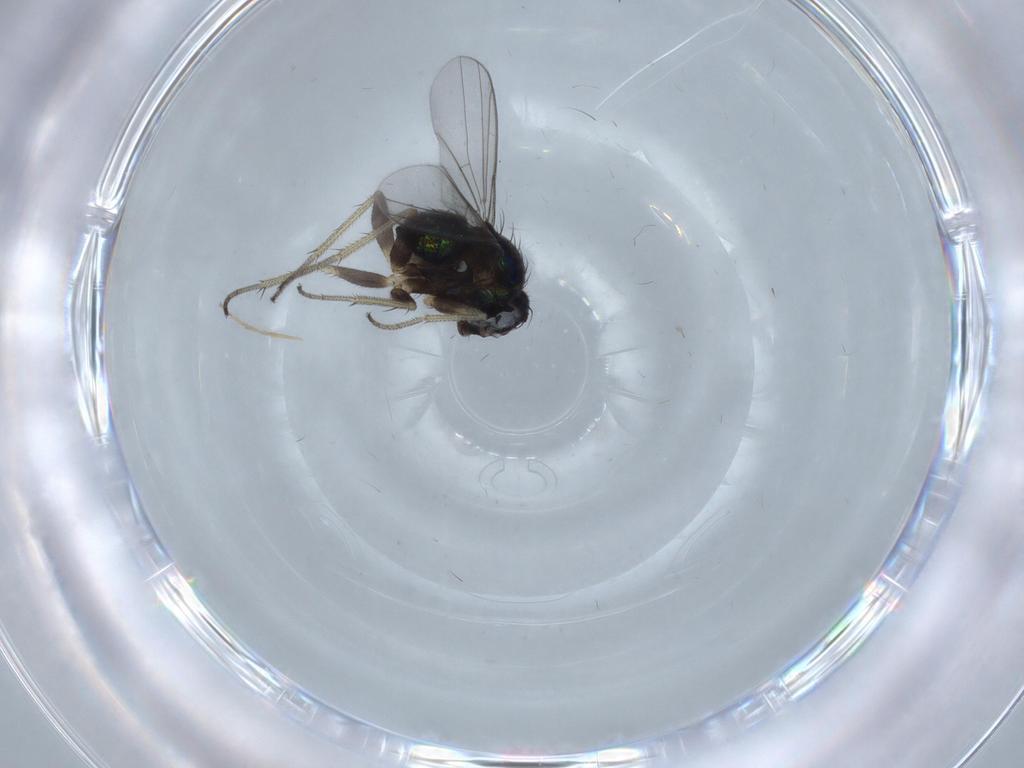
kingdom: Animalia
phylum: Arthropoda
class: Insecta
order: Diptera
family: Dolichopodidae
